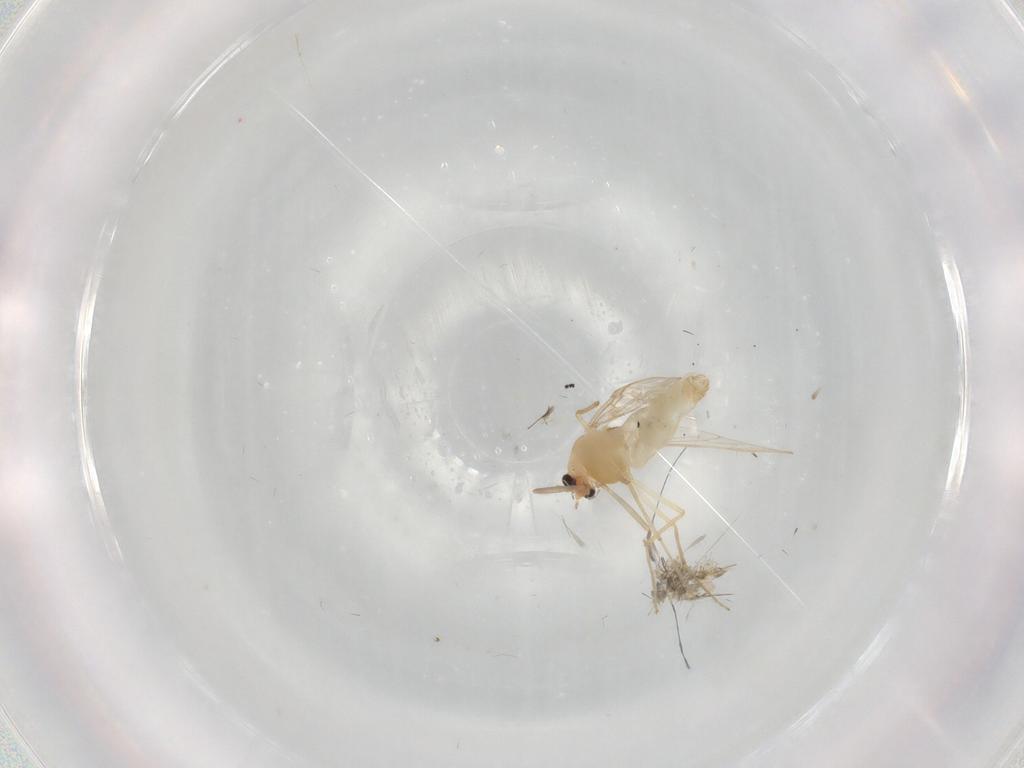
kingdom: Animalia
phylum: Arthropoda
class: Insecta
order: Diptera
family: Chironomidae
